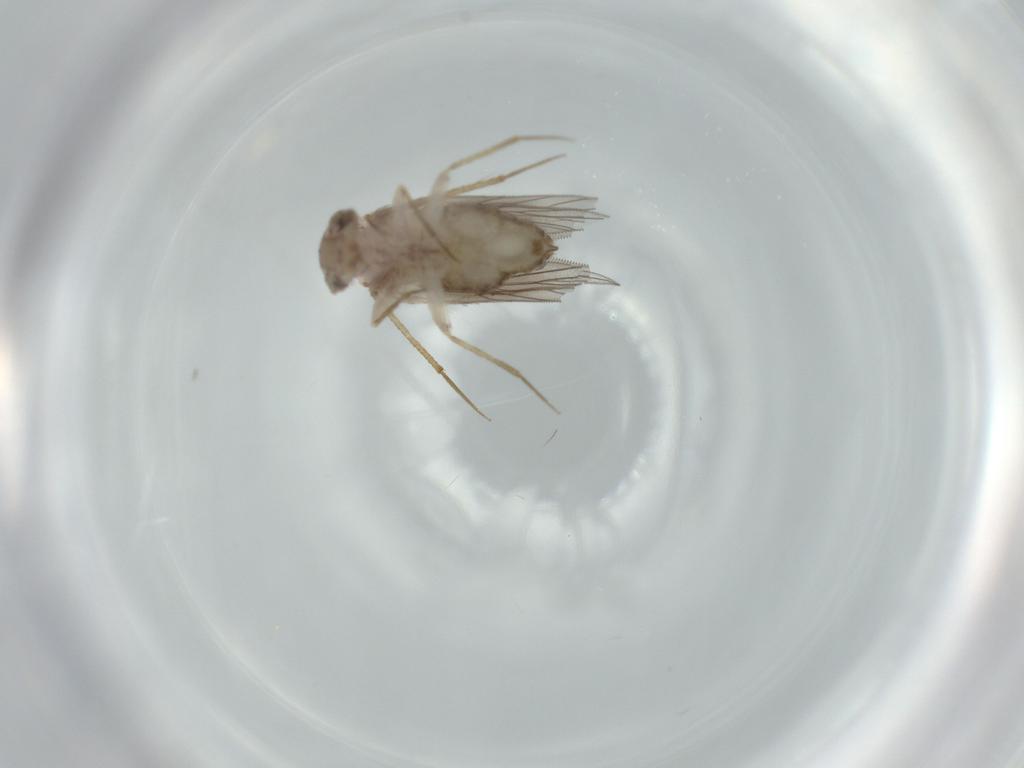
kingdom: Animalia
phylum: Arthropoda
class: Insecta
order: Psocodea
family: Lepidopsocidae
